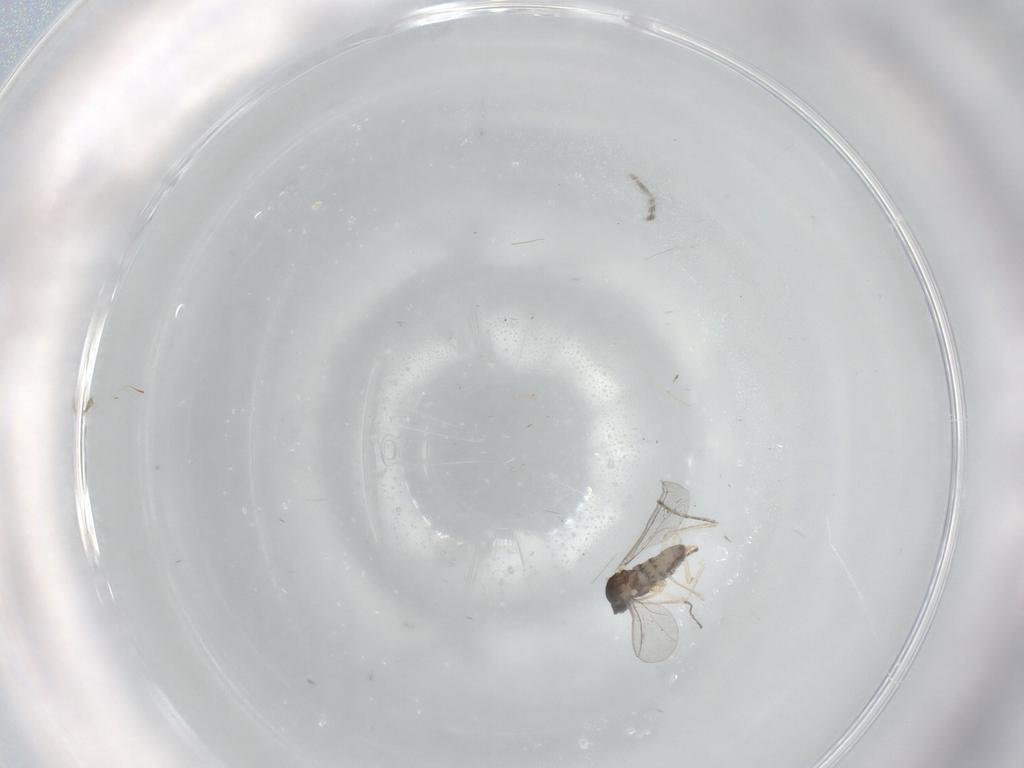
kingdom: Animalia
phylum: Arthropoda
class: Insecta
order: Diptera
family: Cecidomyiidae
